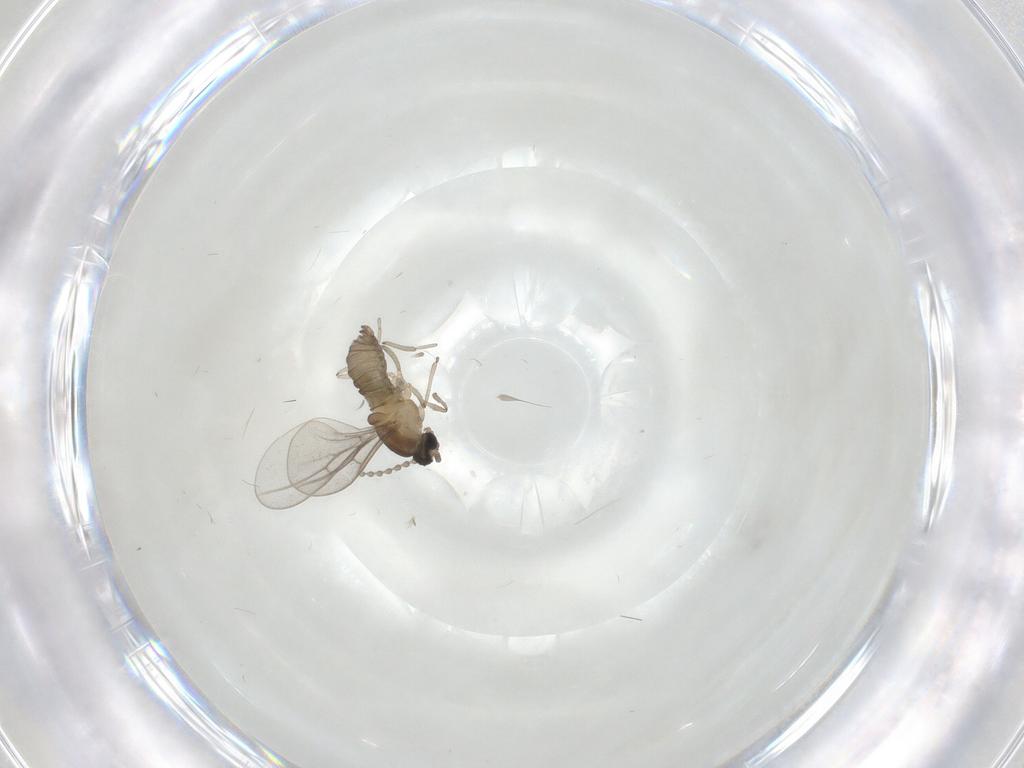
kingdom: Animalia
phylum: Arthropoda
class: Insecta
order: Diptera
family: Cecidomyiidae
